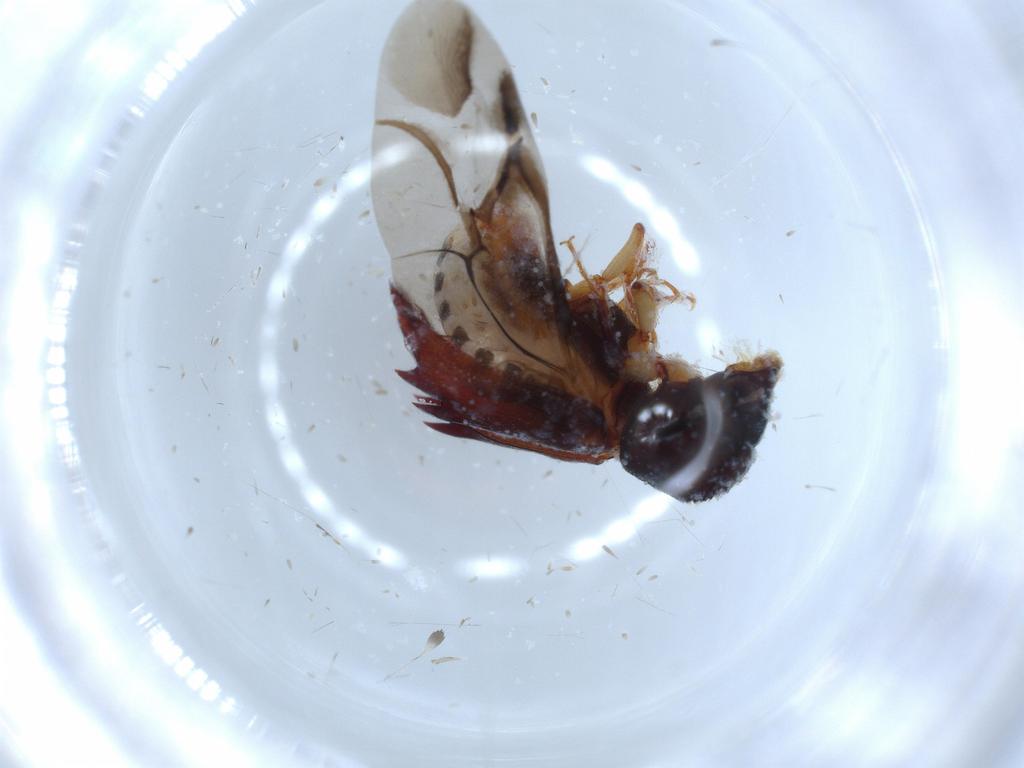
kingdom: Animalia
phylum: Arthropoda
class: Insecta
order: Coleoptera
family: Bostrichidae
